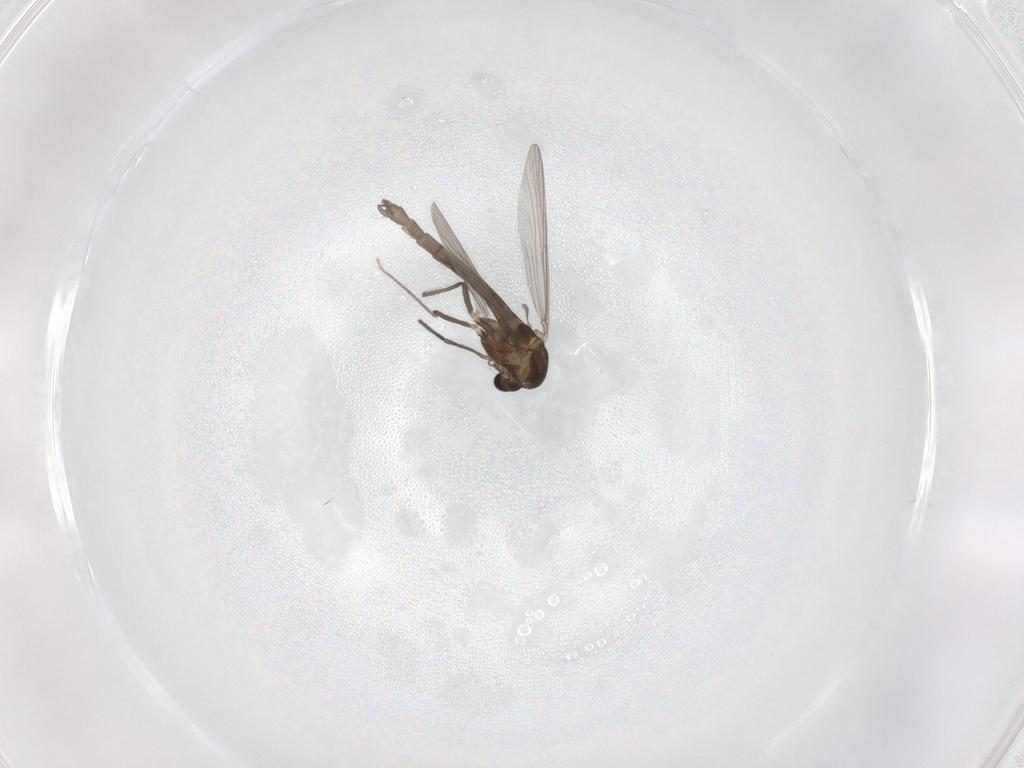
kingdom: Animalia
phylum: Arthropoda
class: Insecta
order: Diptera
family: Chironomidae
